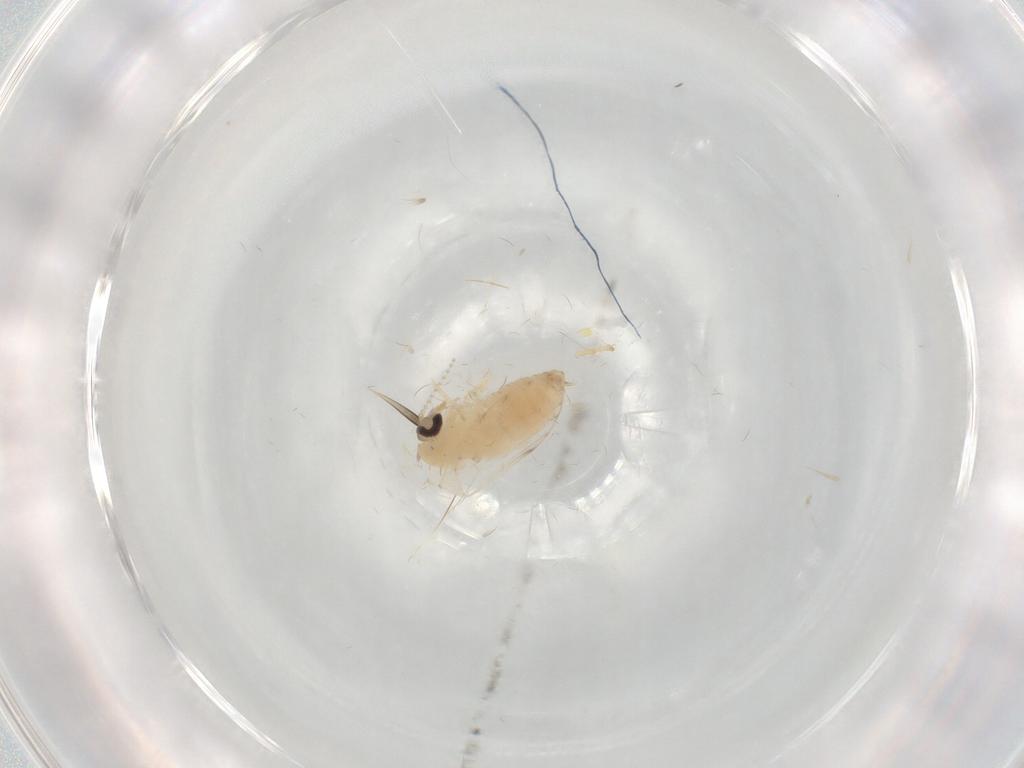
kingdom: Animalia
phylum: Arthropoda
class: Insecta
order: Diptera
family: Psychodidae
